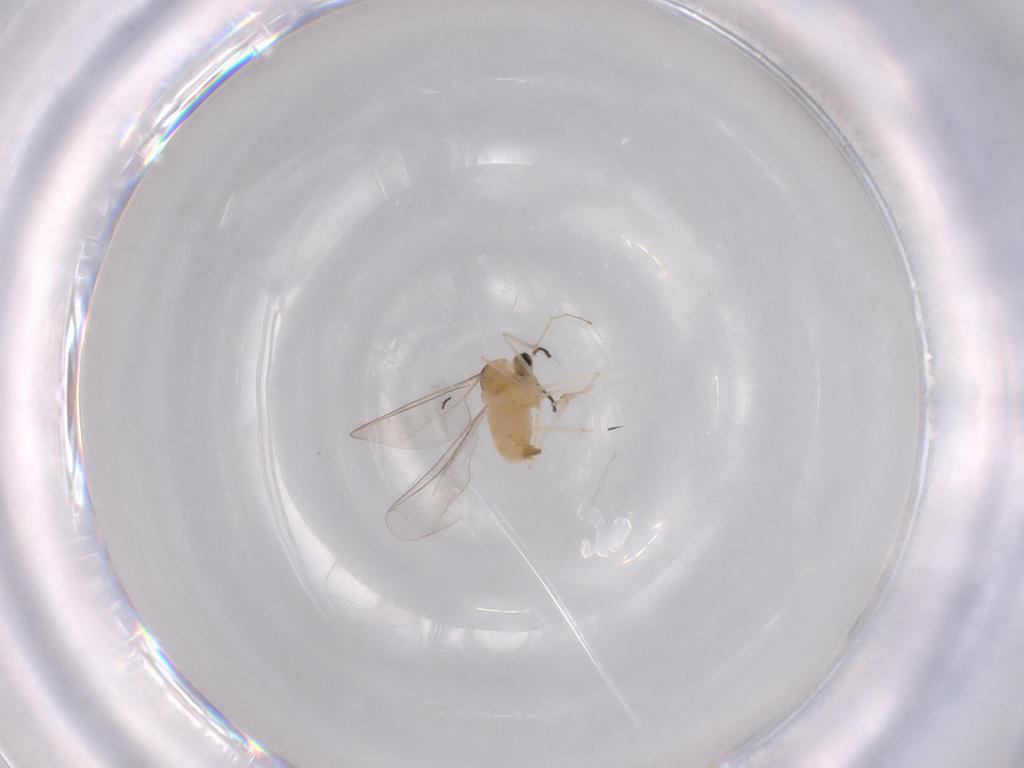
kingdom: Animalia
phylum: Arthropoda
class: Insecta
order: Diptera
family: Cecidomyiidae
